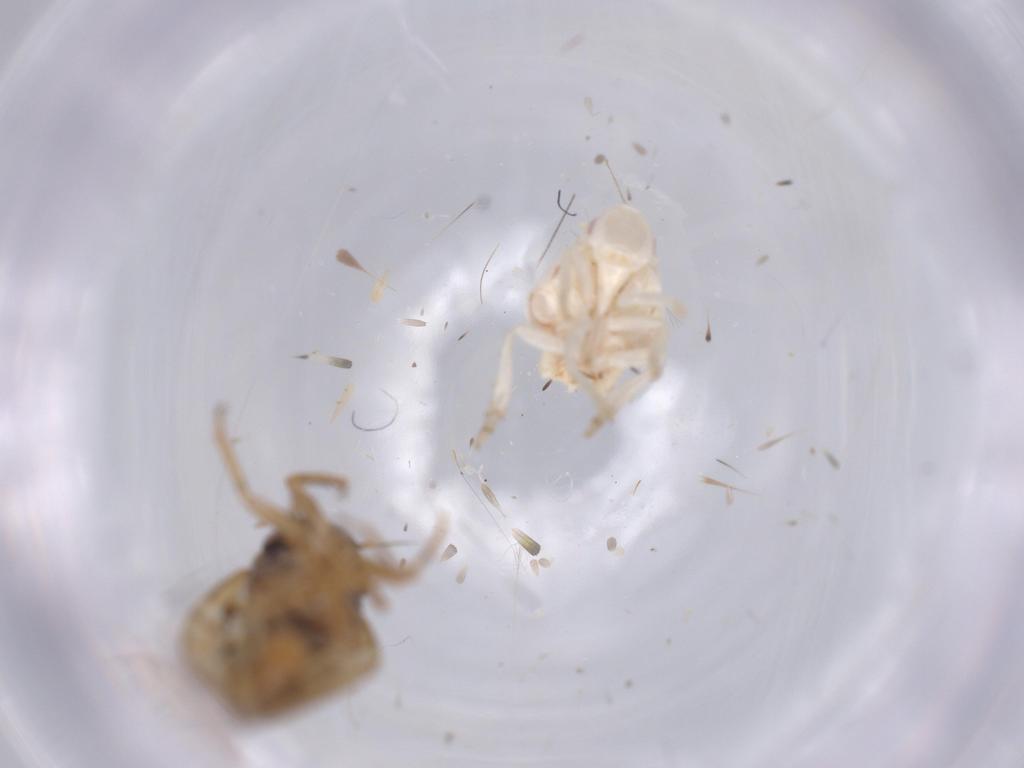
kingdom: Animalia
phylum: Arthropoda
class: Insecta
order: Hemiptera
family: Flatidae
